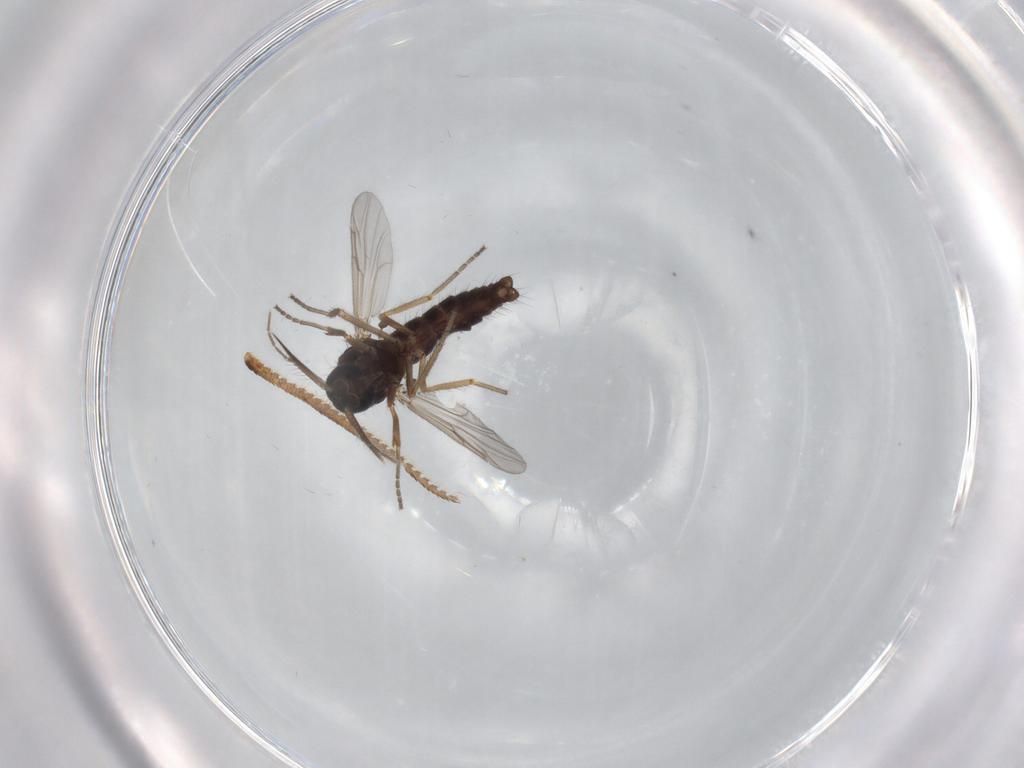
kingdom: Animalia
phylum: Arthropoda
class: Insecta
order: Diptera
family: Ceratopogonidae
